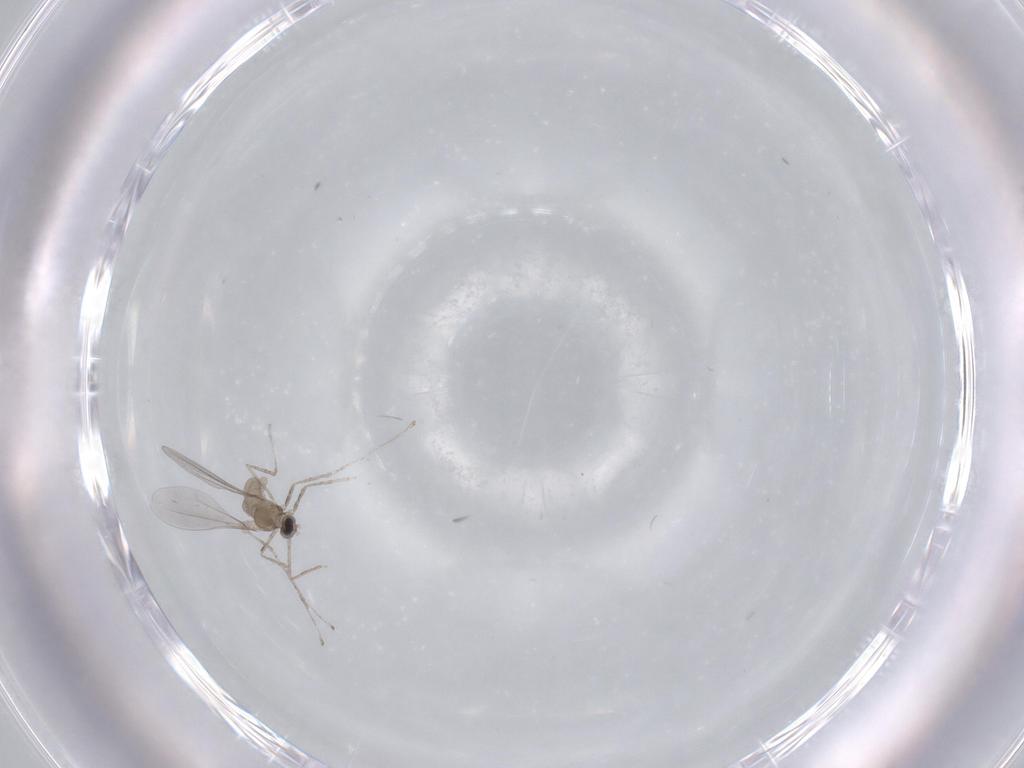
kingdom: Animalia
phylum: Arthropoda
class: Insecta
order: Diptera
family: Cecidomyiidae
